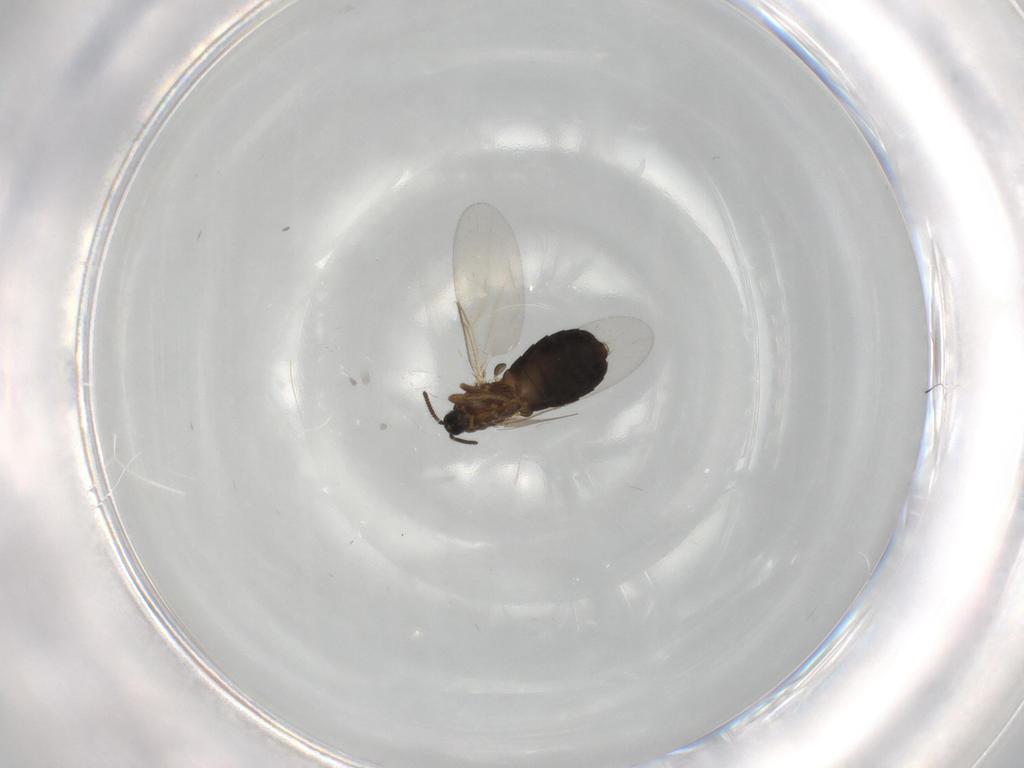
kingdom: Animalia
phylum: Arthropoda
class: Insecta
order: Diptera
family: Scatopsidae
